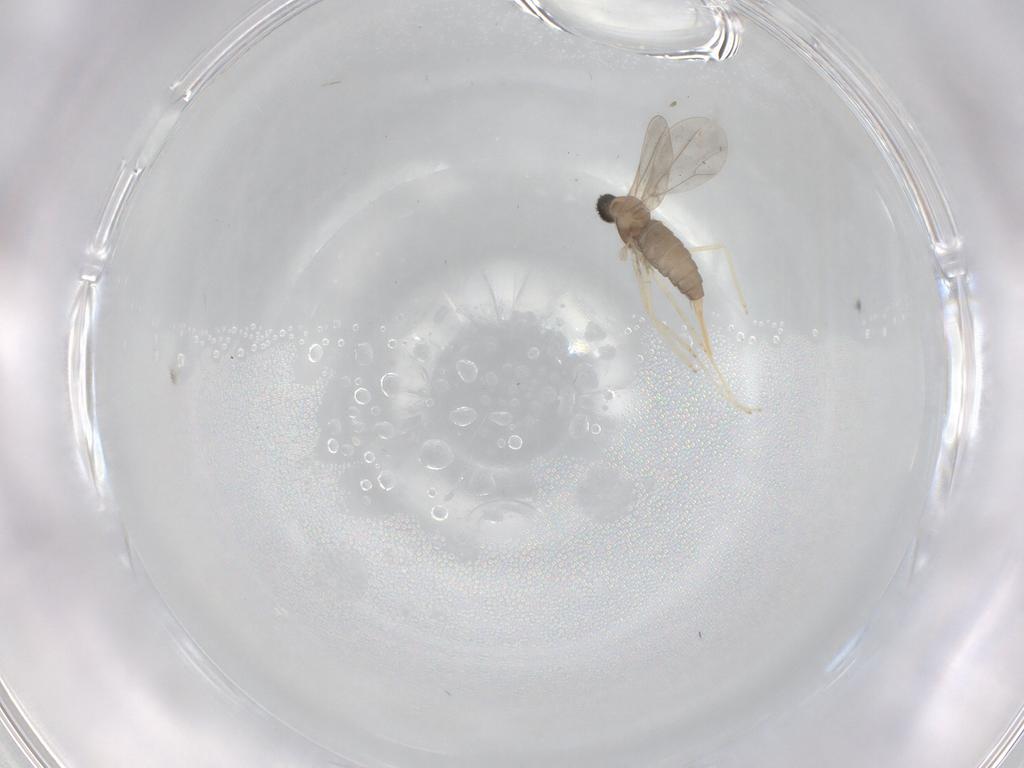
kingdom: Animalia
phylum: Arthropoda
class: Insecta
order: Diptera
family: Cecidomyiidae
